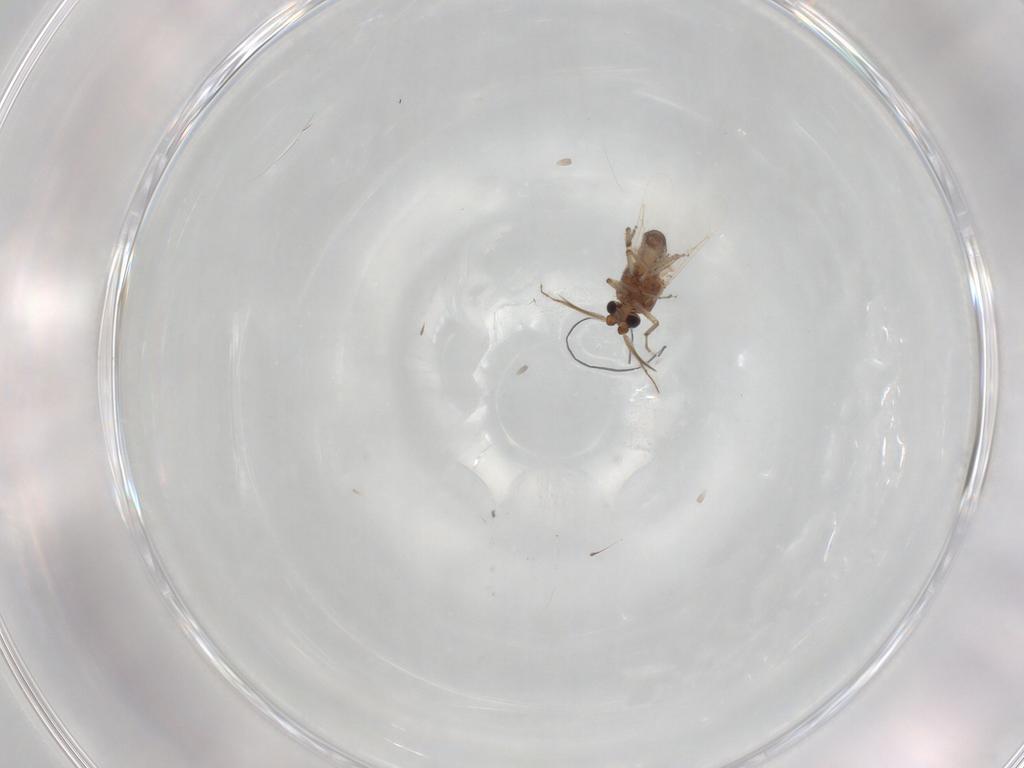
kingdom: Animalia
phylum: Arthropoda
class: Insecta
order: Diptera
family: Ceratopogonidae
